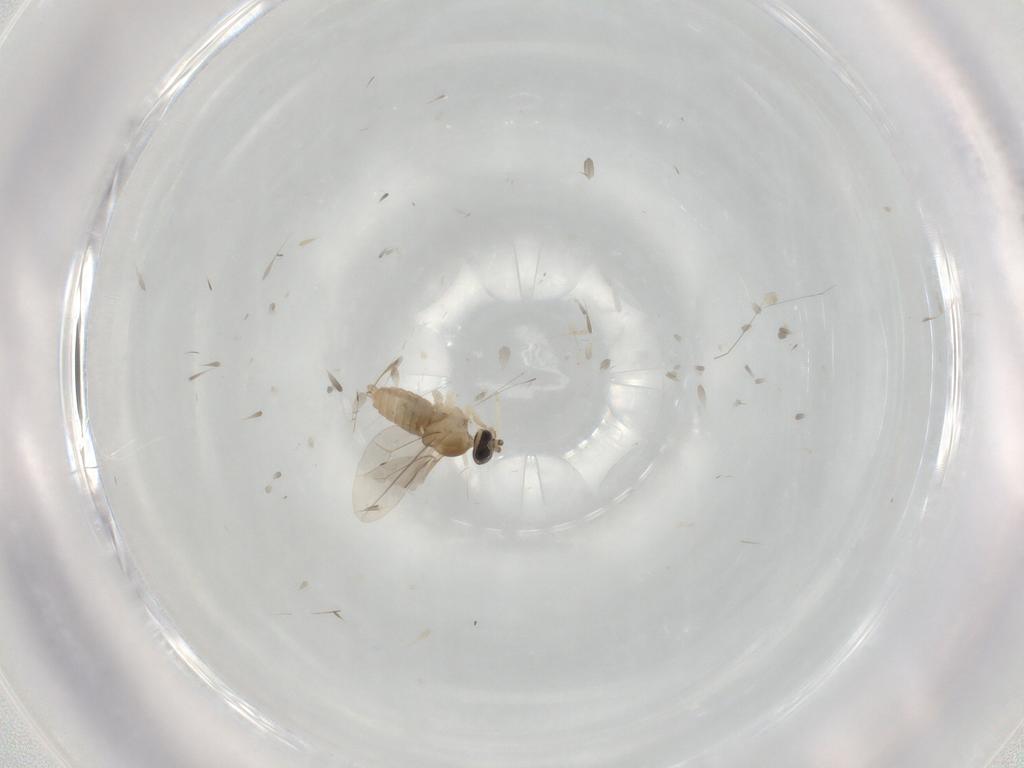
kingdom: Animalia
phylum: Arthropoda
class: Insecta
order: Diptera
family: Cecidomyiidae
